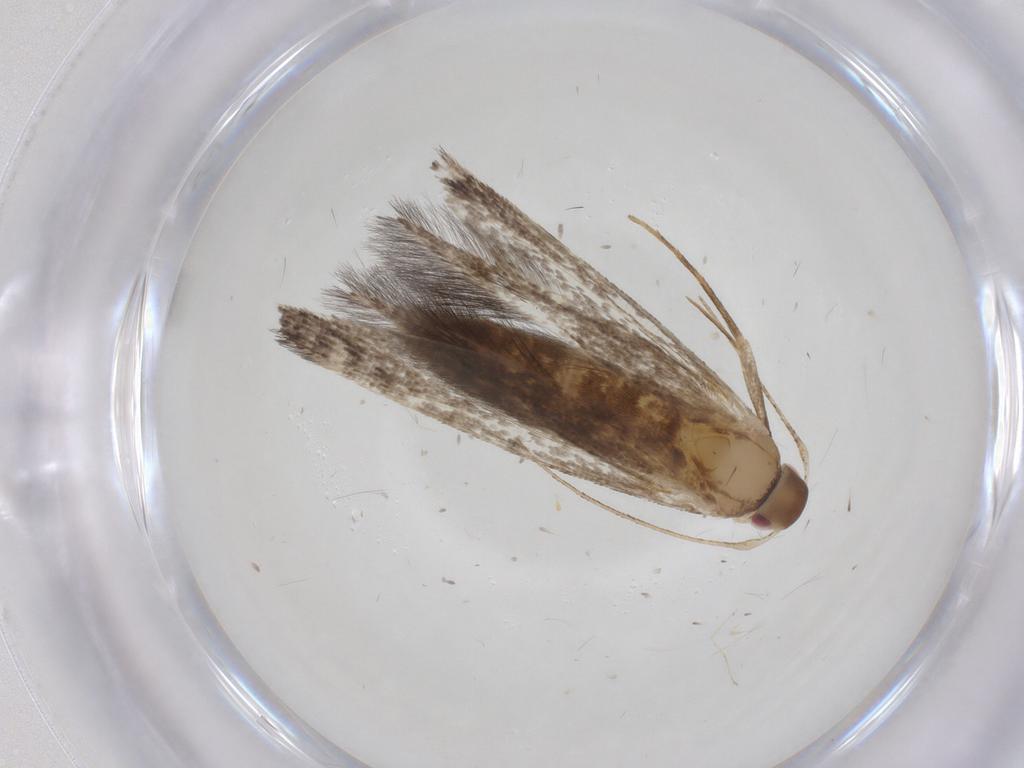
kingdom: Animalia
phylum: Arthropoda
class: Insecta
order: Lepidoptera
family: Cosmopterigidae
